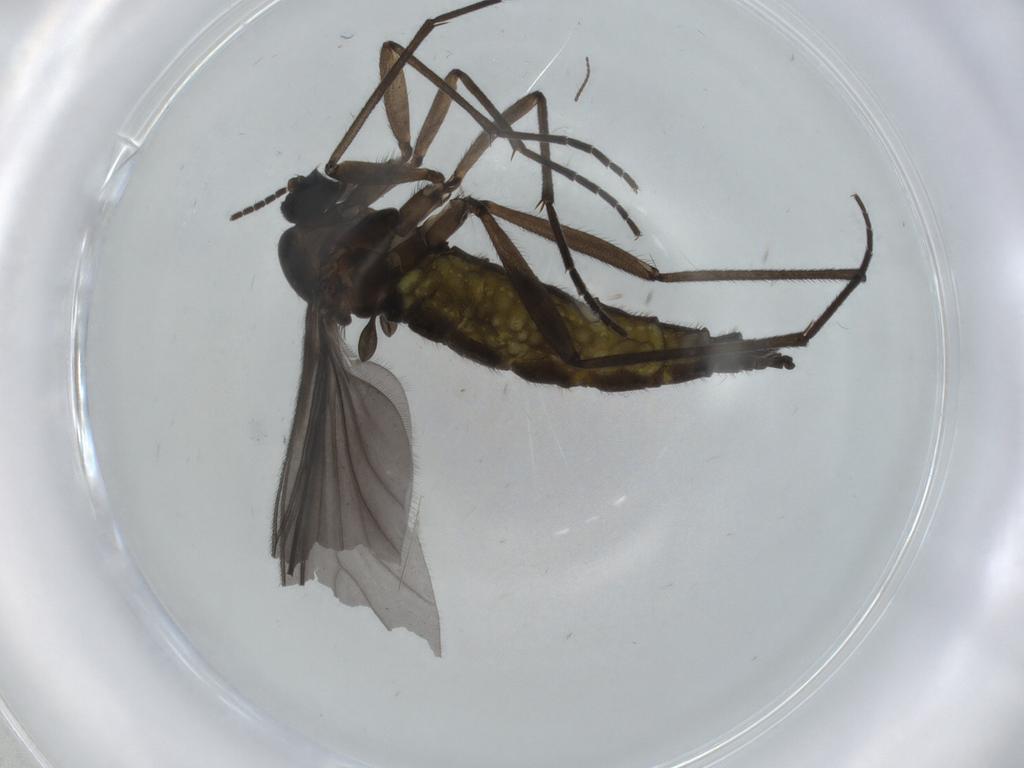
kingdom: Animalia
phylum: Arthropoda
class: Insecta
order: Diptera
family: Sciaridae
